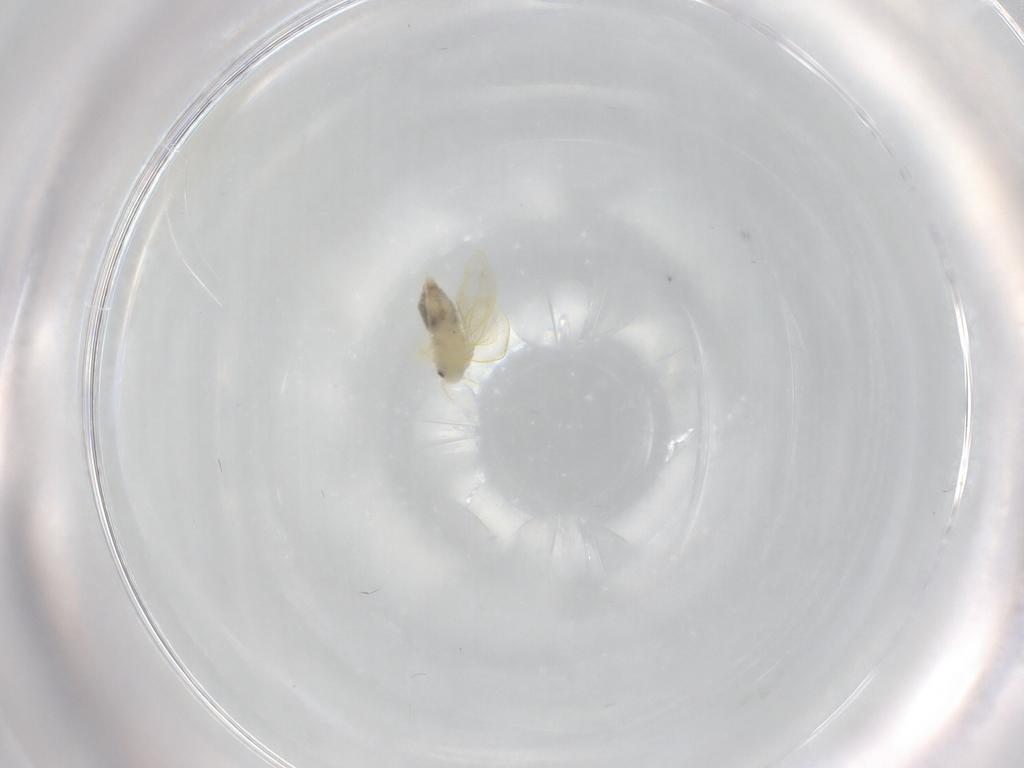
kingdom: Animalia
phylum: Arthropoda
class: Insecta
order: Hemiptera
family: Aleyrodidae
